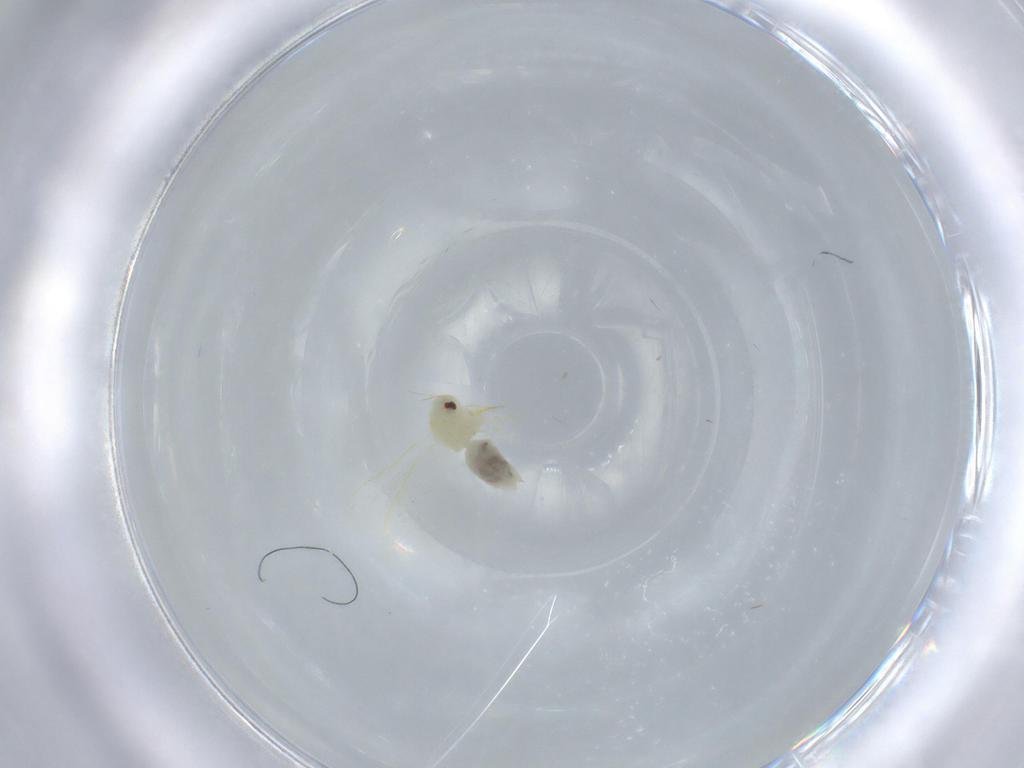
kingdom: Animalia
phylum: Arthropoda
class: Insecta
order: Hemiptera
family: Aleyrodidae
